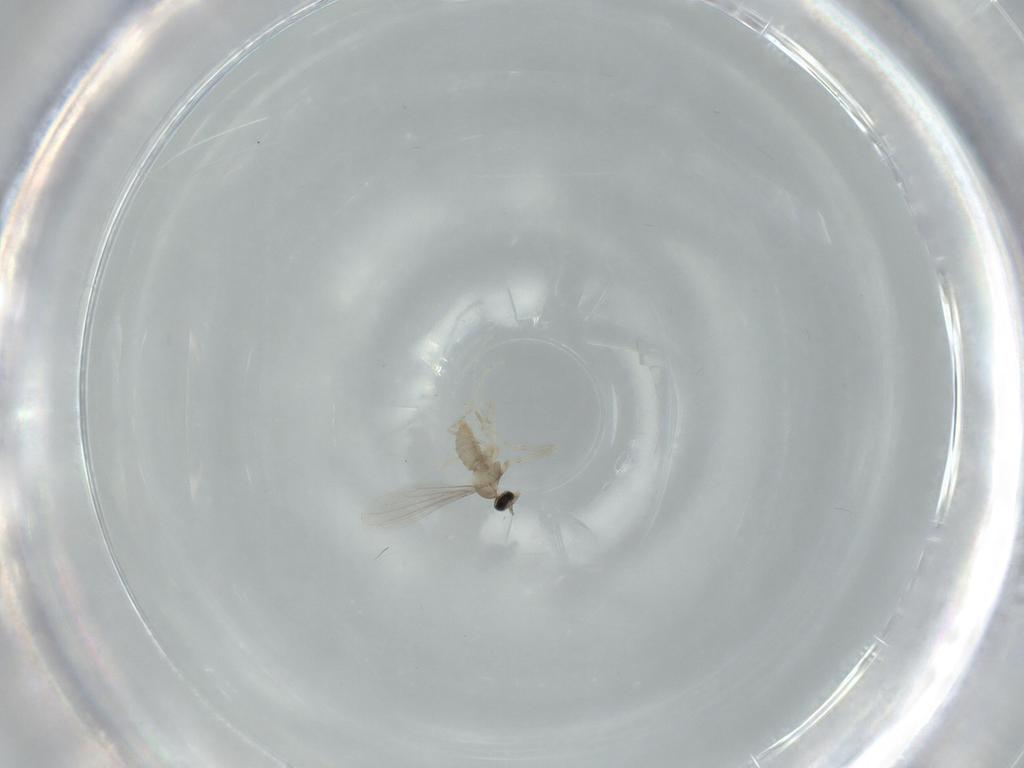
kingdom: Animalia
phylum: Arthropoda
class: Insecta
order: Diptera
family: Cecidomyiidae
